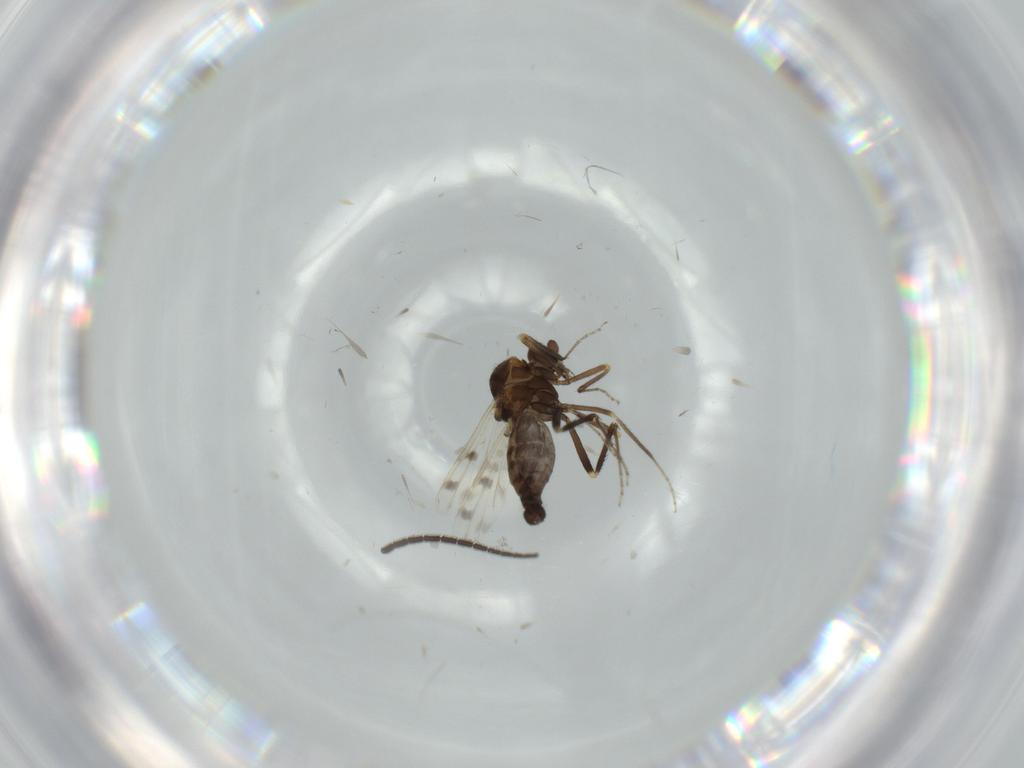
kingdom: Animalia
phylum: Arthropoda
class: Insecta
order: Diptera
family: Ceratopogonidae
